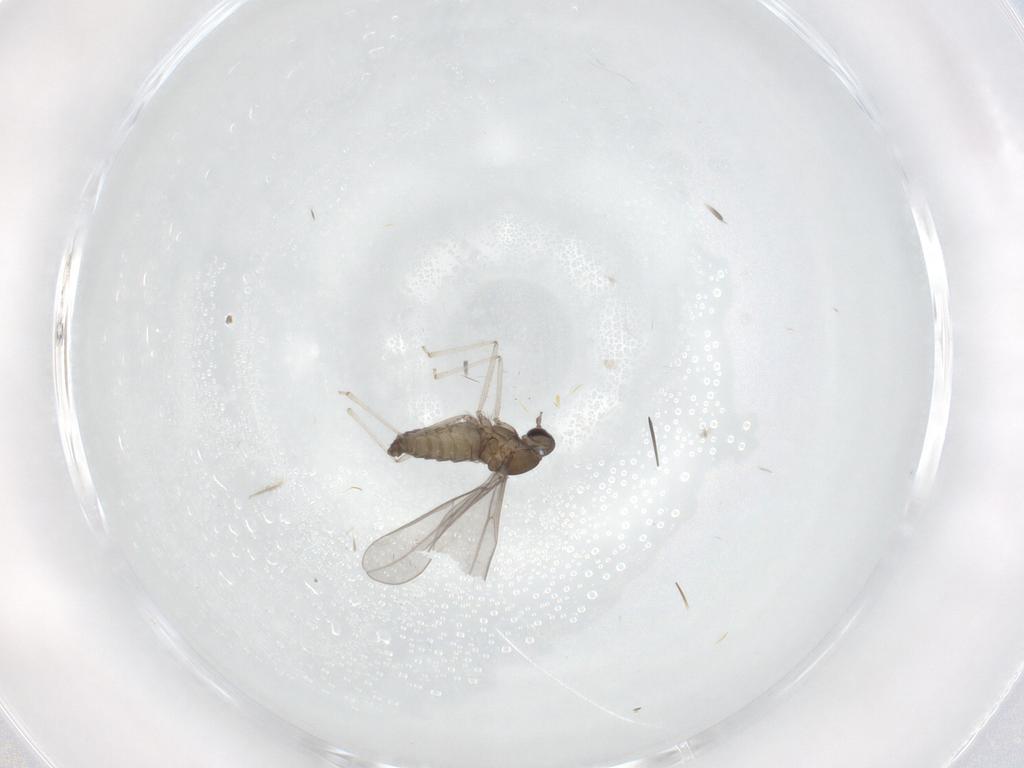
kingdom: Animalia
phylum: Arthropoda
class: Insecta
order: Diptera
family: Cecidomyiidae
